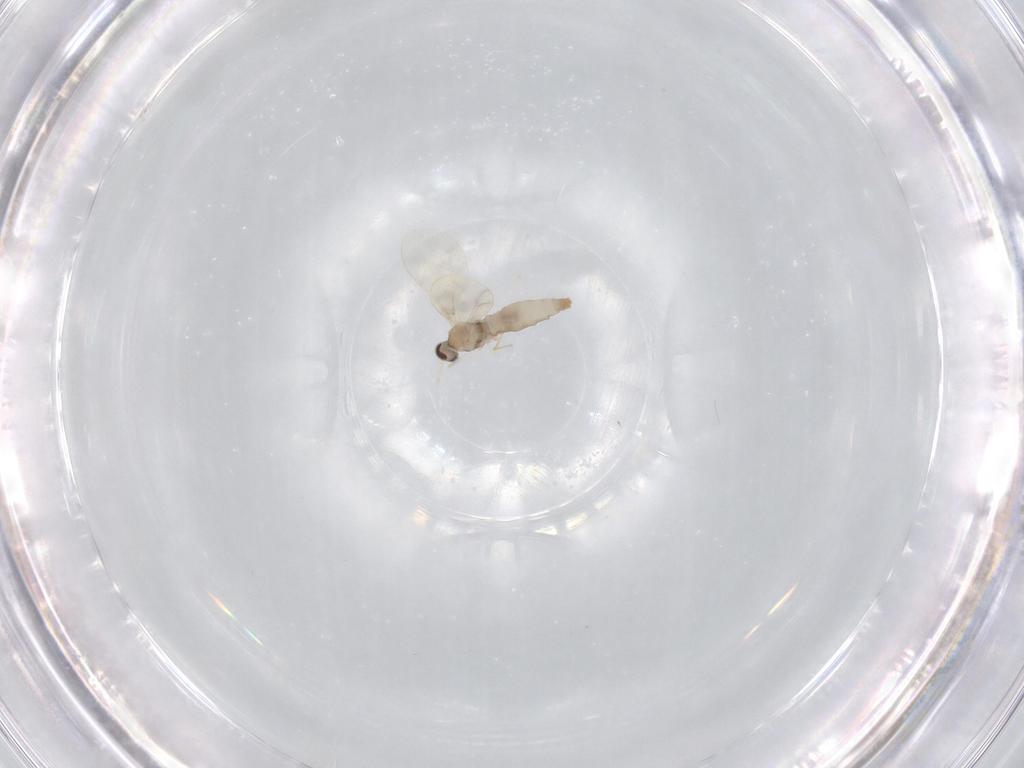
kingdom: Animalia
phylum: Arthropoda
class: Insecta
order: Diptera
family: Cecidomyiidae
